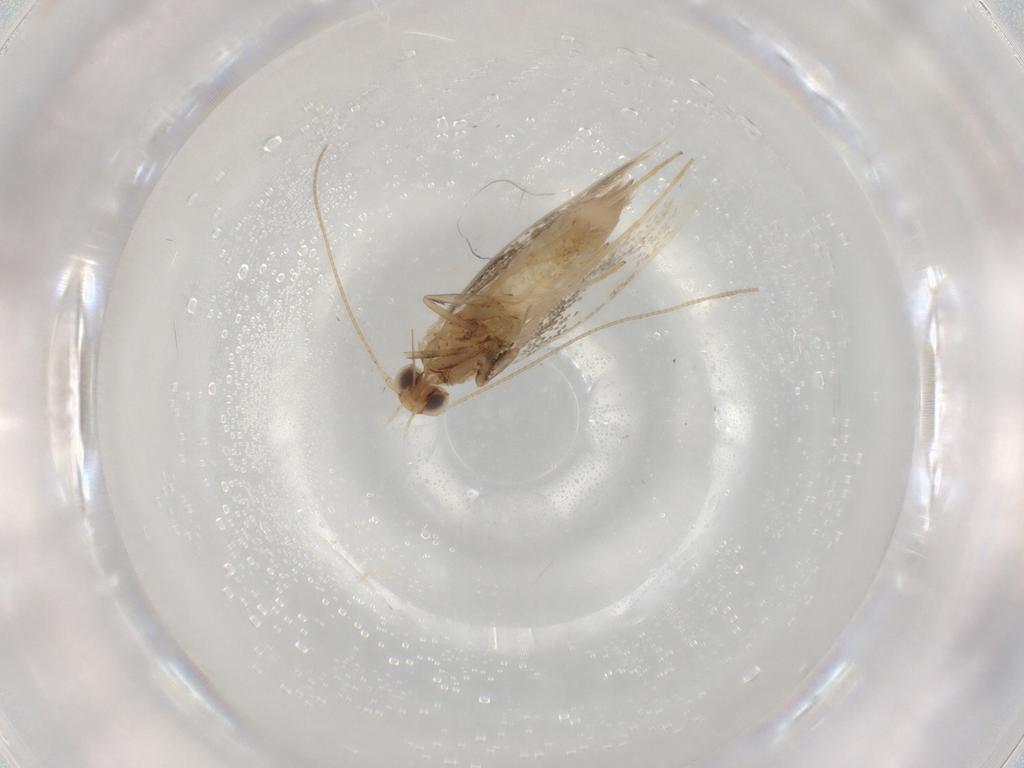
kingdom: Animalia
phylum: Arthropoda
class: Insecta
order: Lepidoptera
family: Gracillariidae
